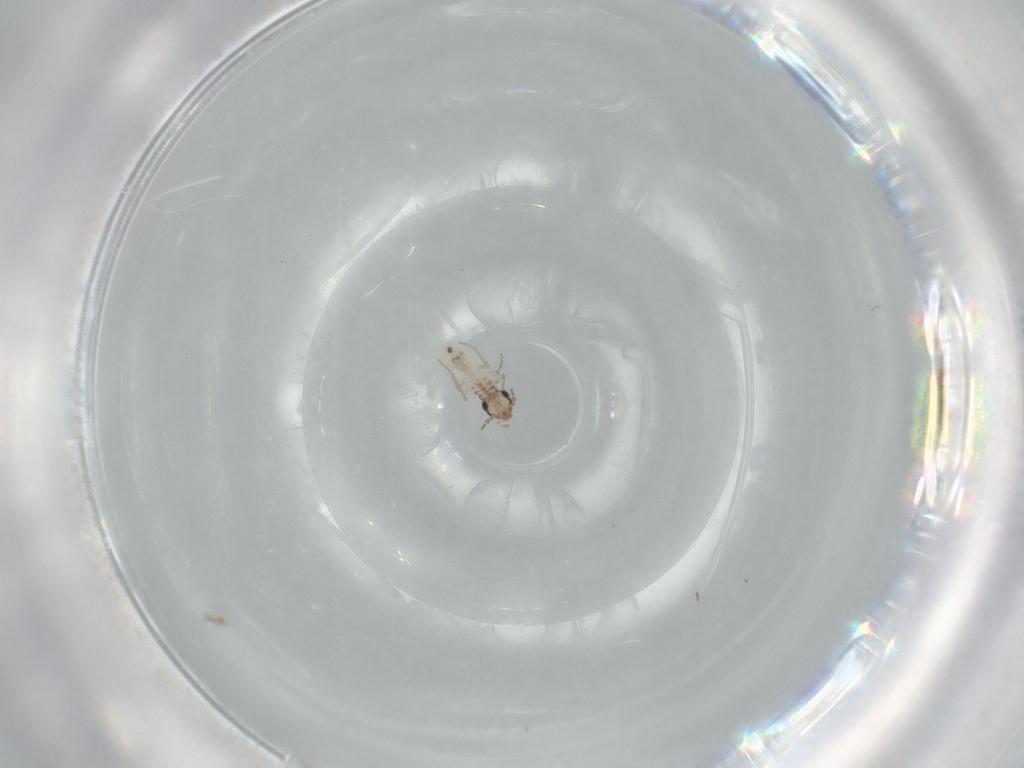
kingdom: Animalia
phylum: Arthropoda
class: Insecta
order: Psocodea
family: Lepidopsocidae
